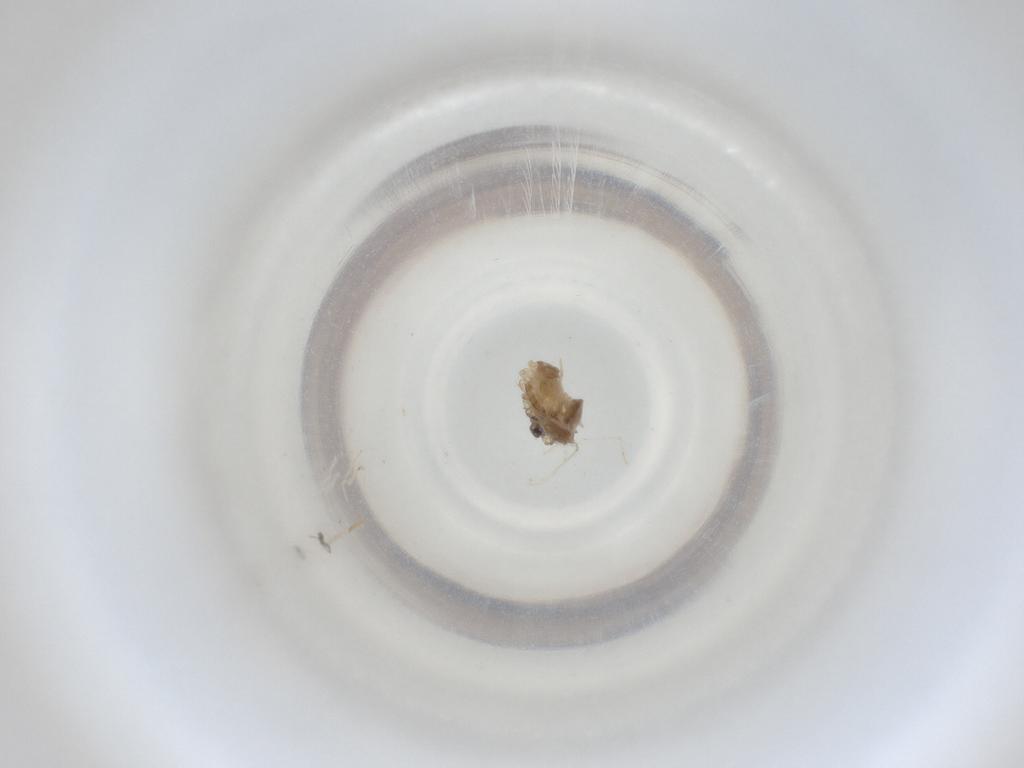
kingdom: Animalia
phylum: Arthropoda
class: Insecta
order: Diptera
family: Cecidomyiidae
